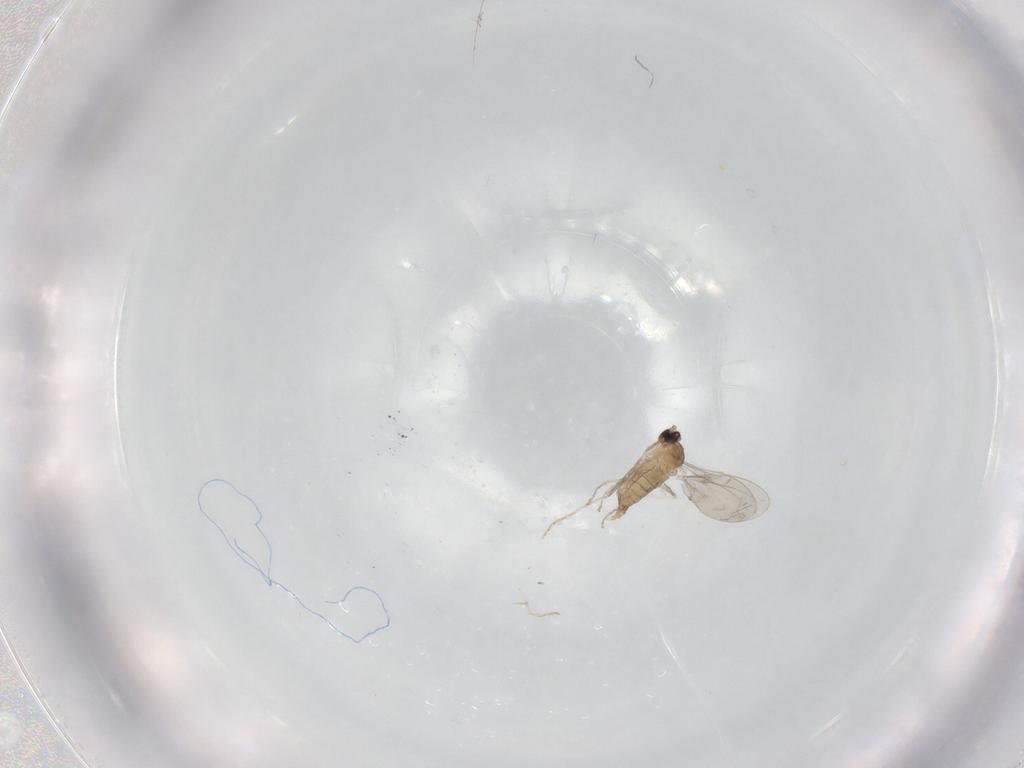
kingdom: Animalia
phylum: Arthropoda
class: Insecta
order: Diptera
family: Cecidomyiidae
